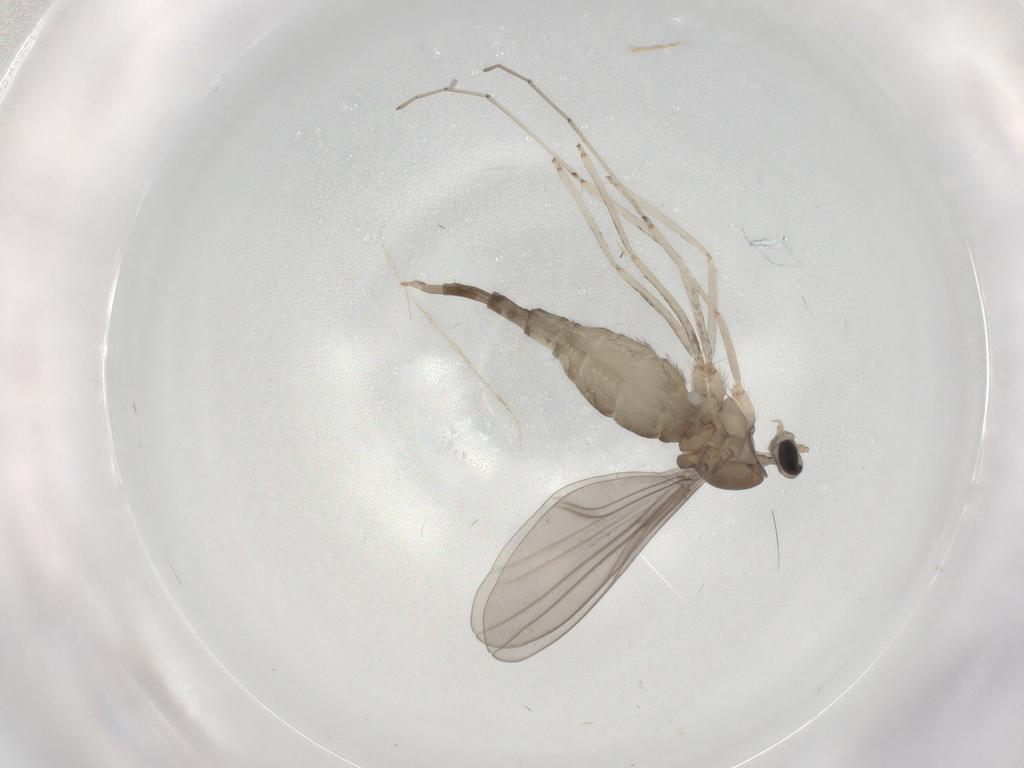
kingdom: Animalia
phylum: Arthropoda
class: Insecta
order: Diptera
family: Cecidomyiidae
